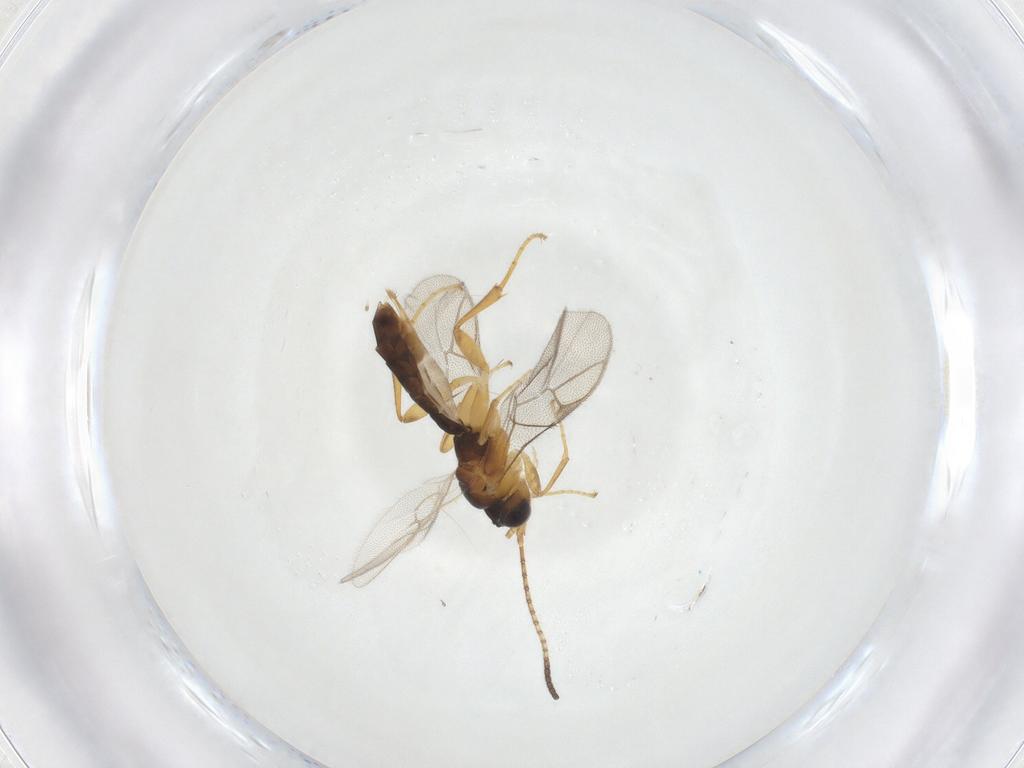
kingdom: Animalia
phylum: Arthropoda
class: Insecta
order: Hymenoptera
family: Ichneumonidae
